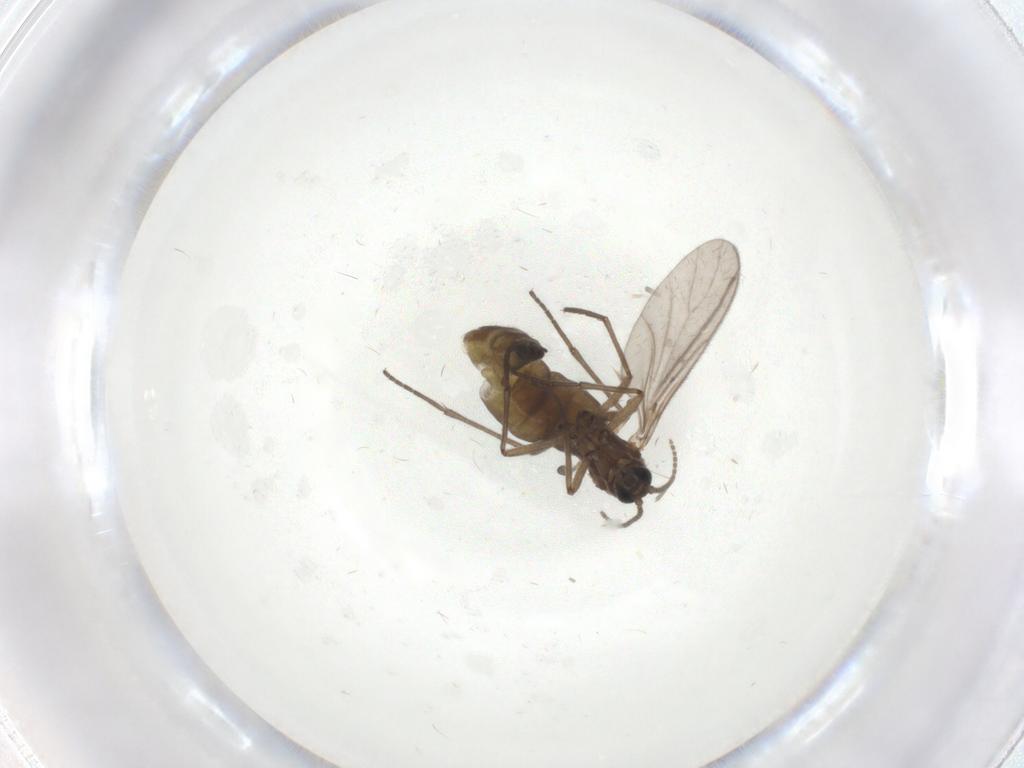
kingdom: Animalia
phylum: Arthropoda
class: Insecta
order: Diptera
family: Sciaridae
